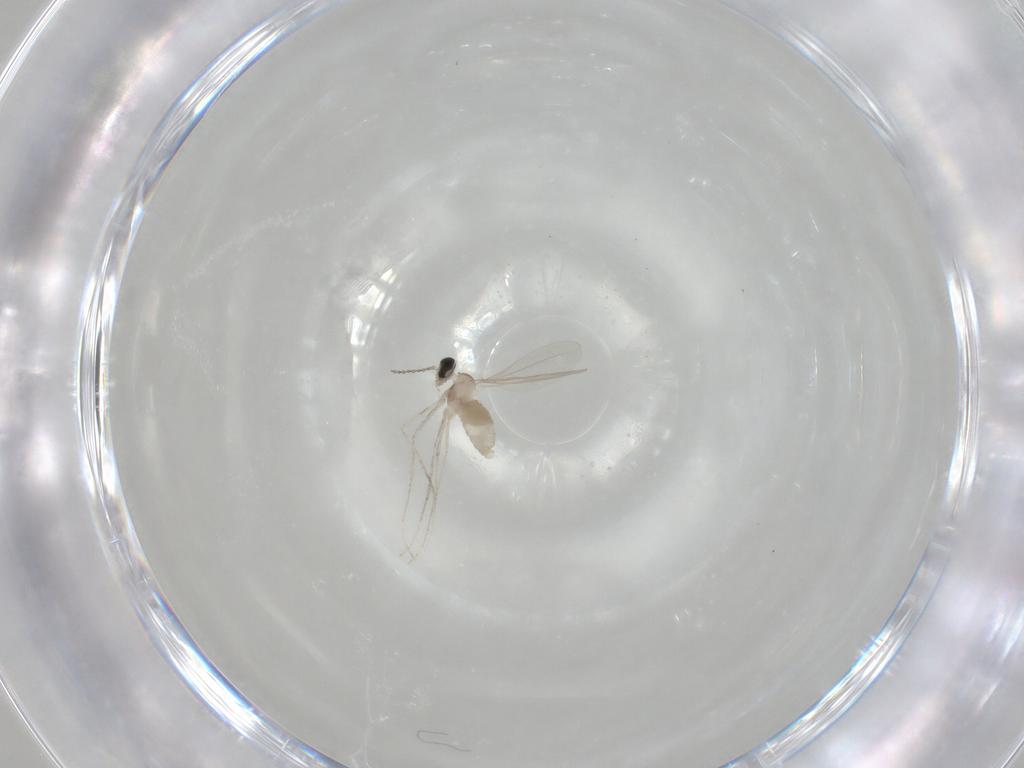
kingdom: Animalia
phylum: Arthropoda
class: Insecta
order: Diptera
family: Cecidomyiidae
